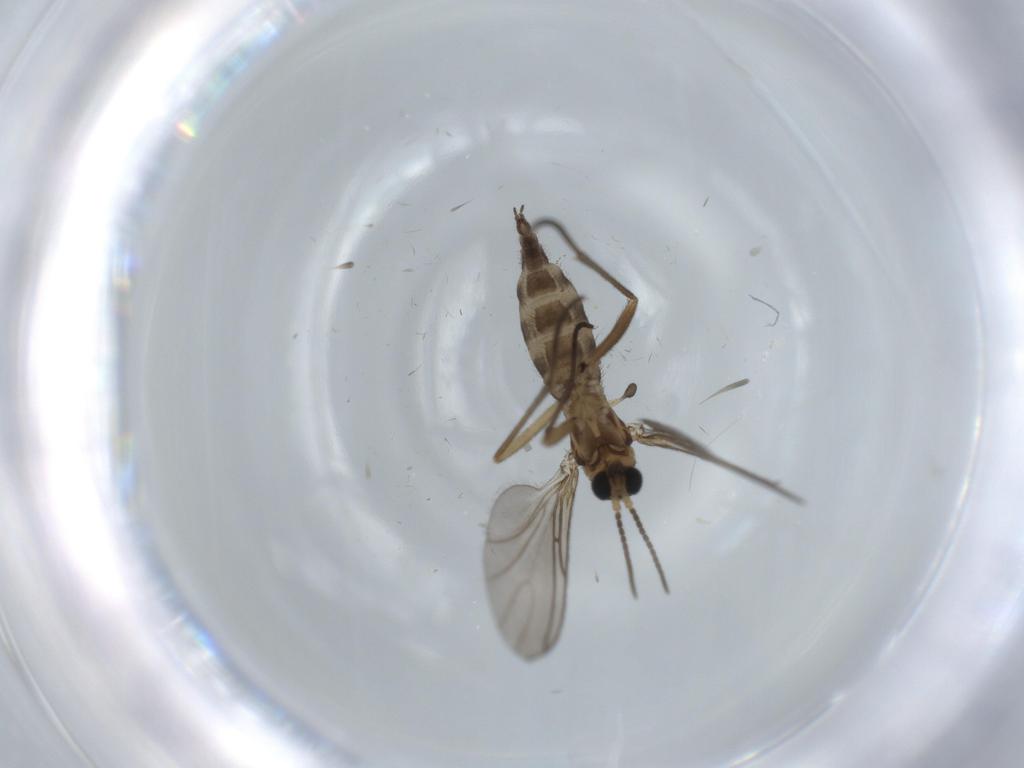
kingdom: Animalia
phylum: Arthropoda
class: Insecta
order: Diptera
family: Sciaridae
